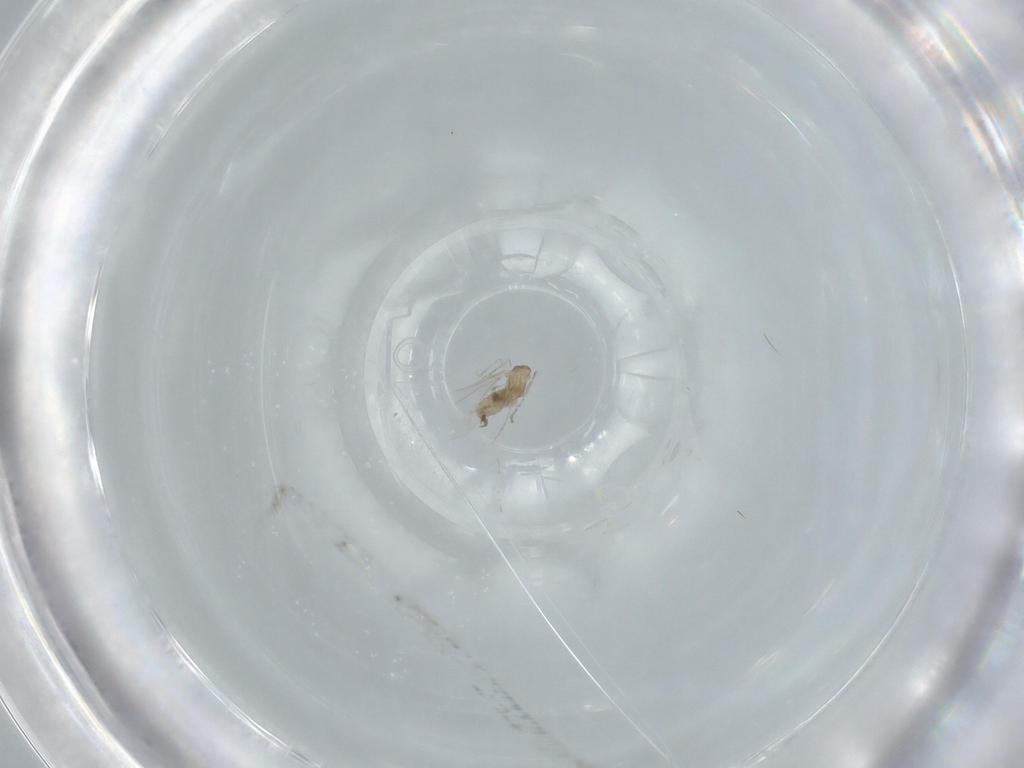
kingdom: Animalia
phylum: Arthropoda
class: Insecta
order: Diptera
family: Cecidomyiidae
